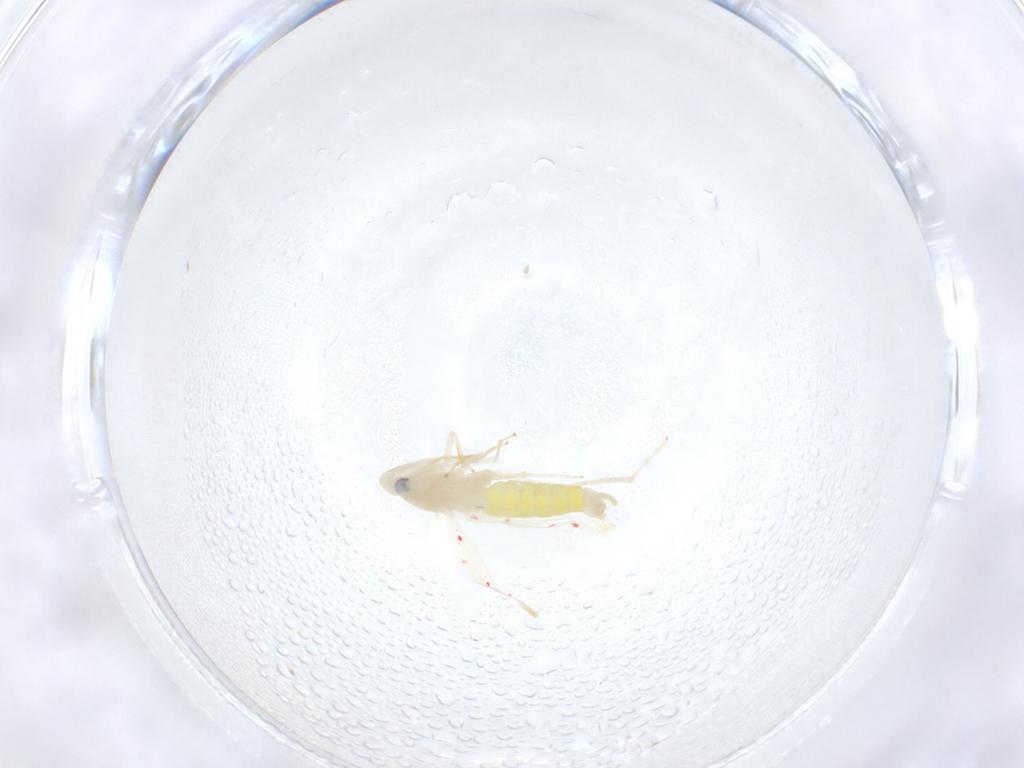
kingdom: Animalia
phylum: Arthropoda
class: Insecta
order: Hemiptera
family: Cicadellidae
